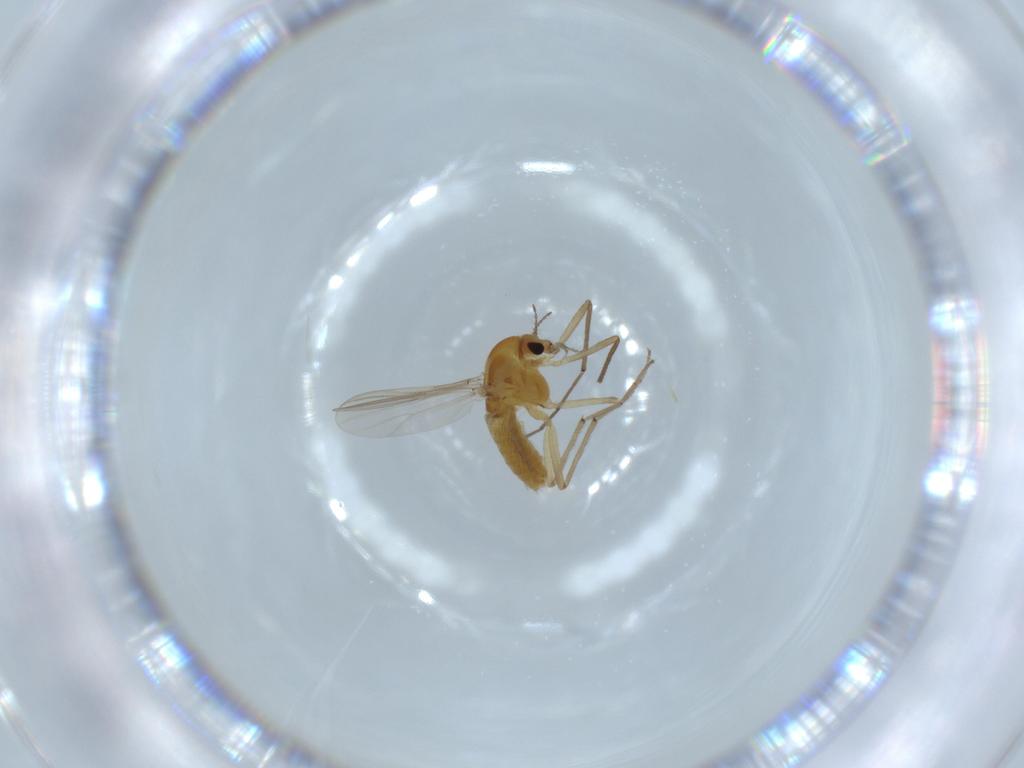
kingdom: Animalia
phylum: Arthropoda
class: Insecta
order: Diptera
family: Chironomidae
